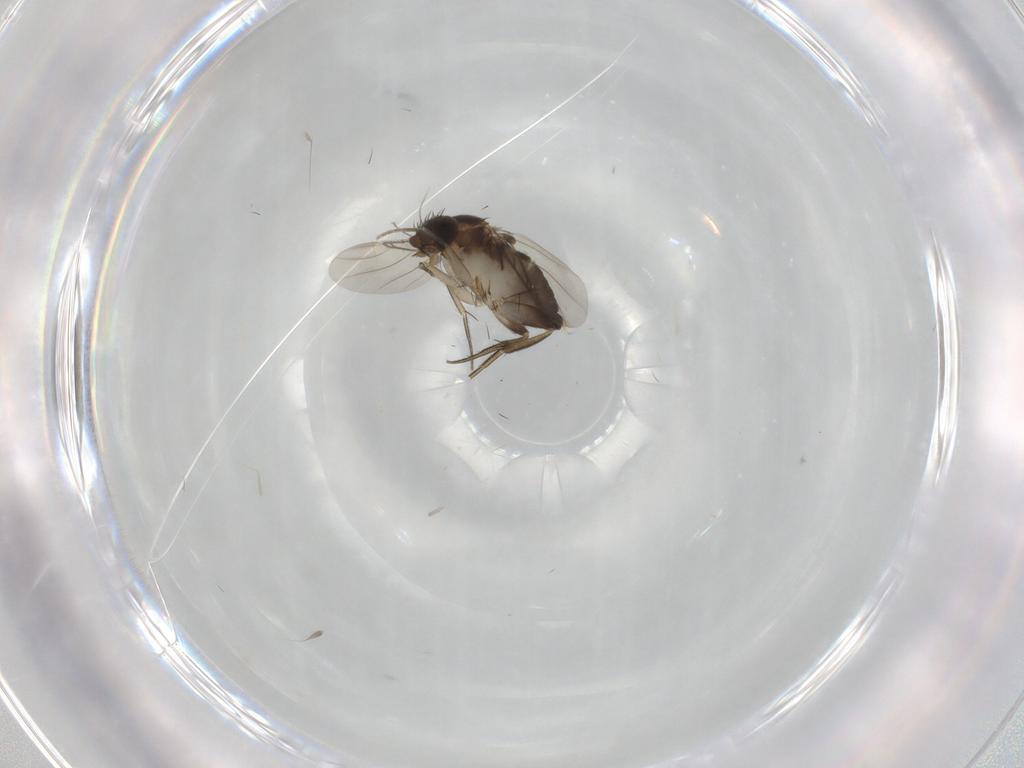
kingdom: Animalia
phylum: Arthropoda
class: Insecta
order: Diptera
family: Phoridae
